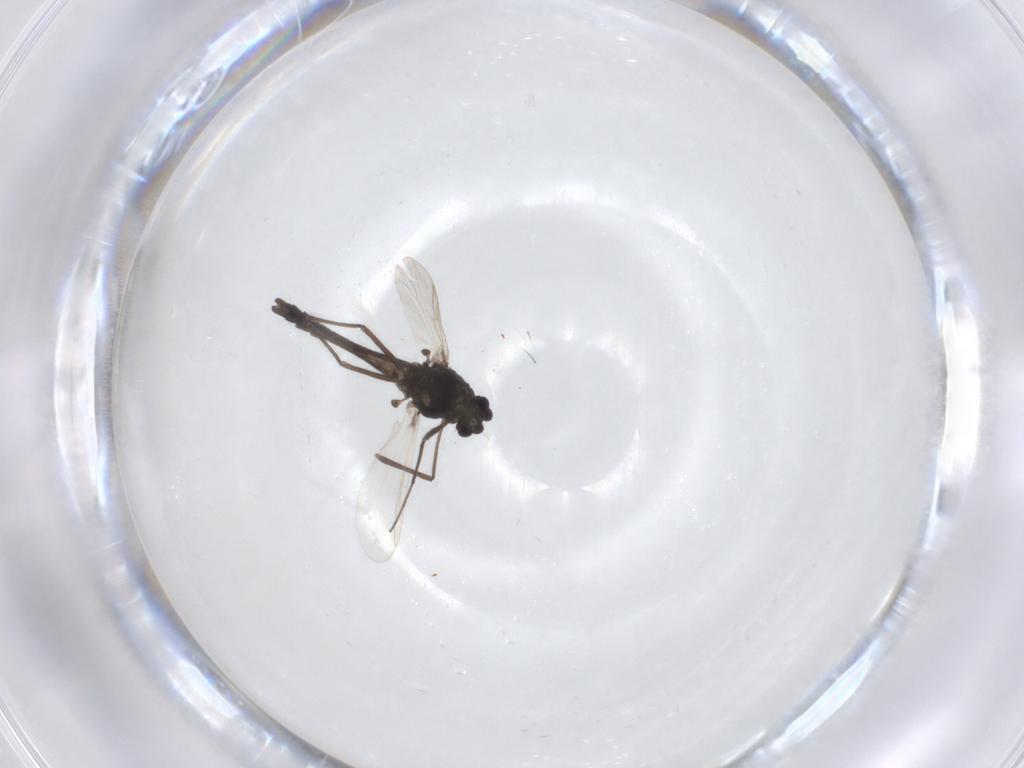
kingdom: Animalia
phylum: Arthropoda
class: Insecta
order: Diptera
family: Chironomidae
